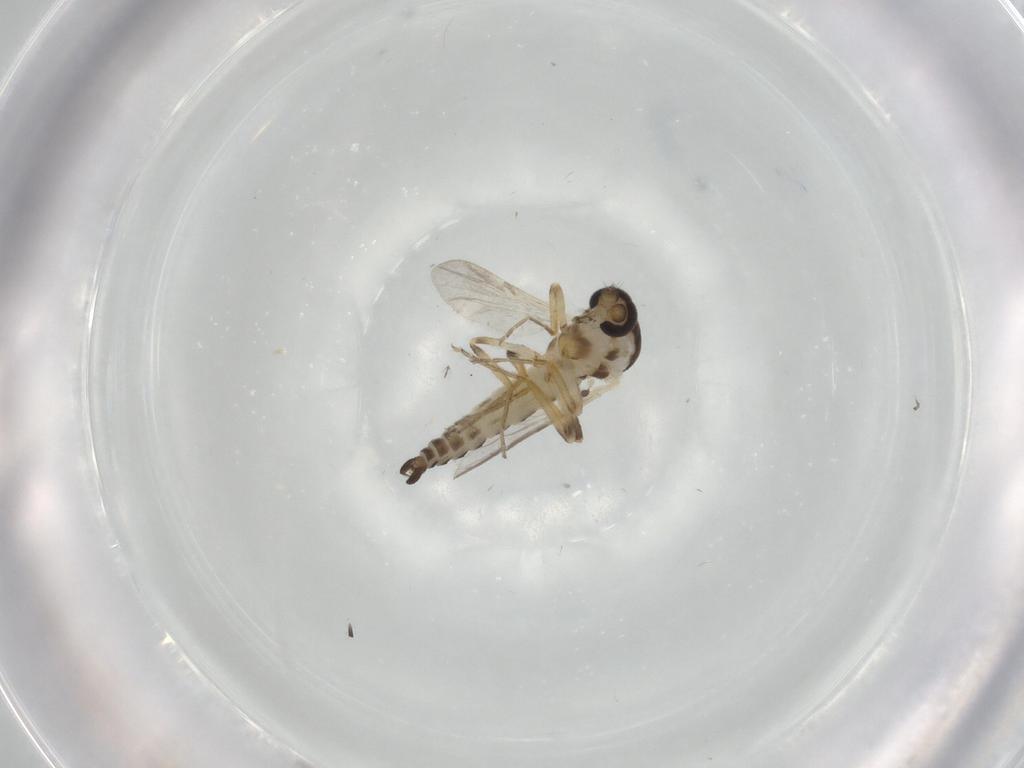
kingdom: Animalia
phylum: Arthropoda
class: Insecta
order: Diptera
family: Ceratopogonidae
